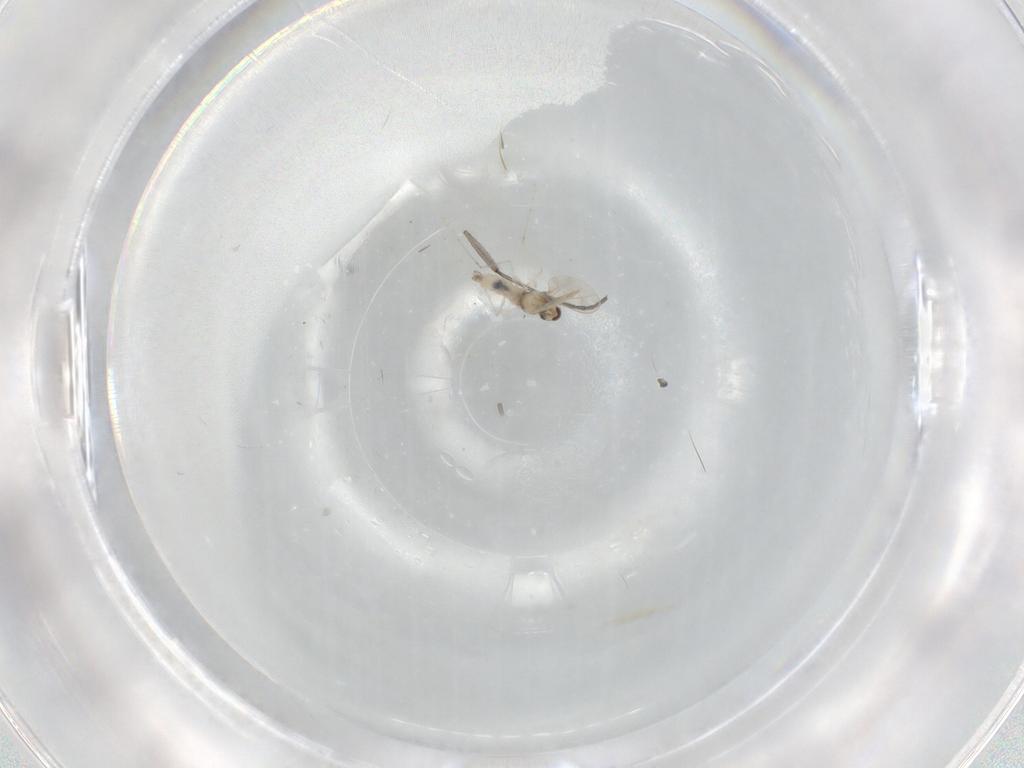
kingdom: Animalia
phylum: Arthropoda
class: Insecta
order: Diptera
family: Cecidomyiidae
